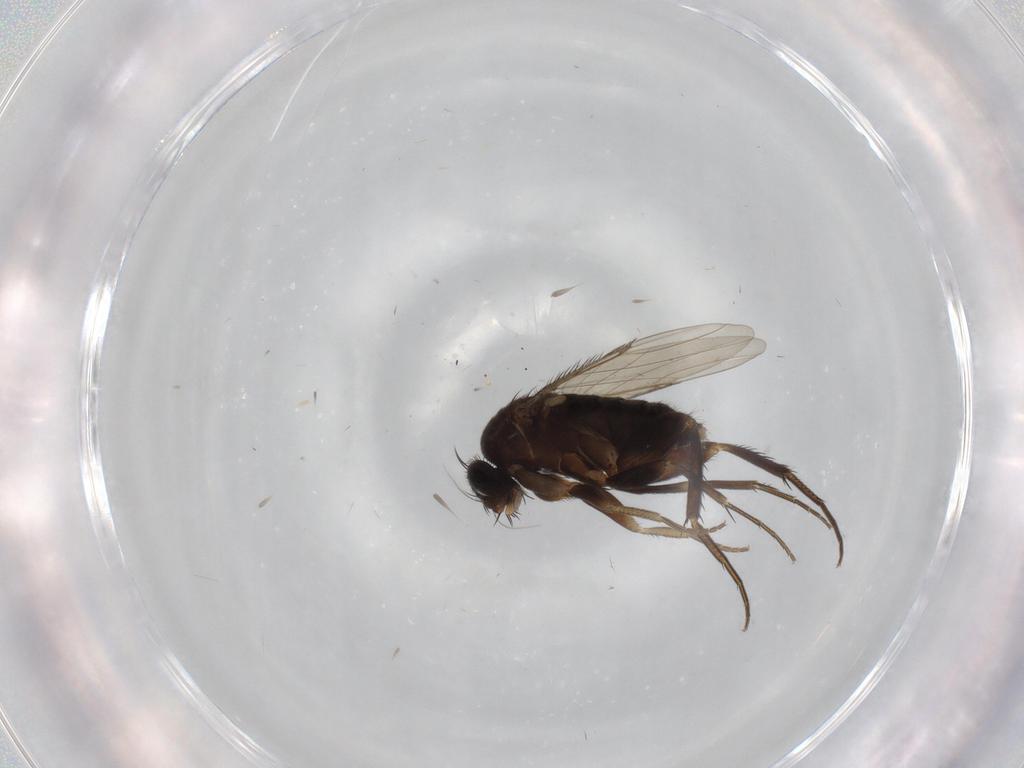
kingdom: Animalia
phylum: Arthropoda
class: Insecta
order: Diptera
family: Phoridae
